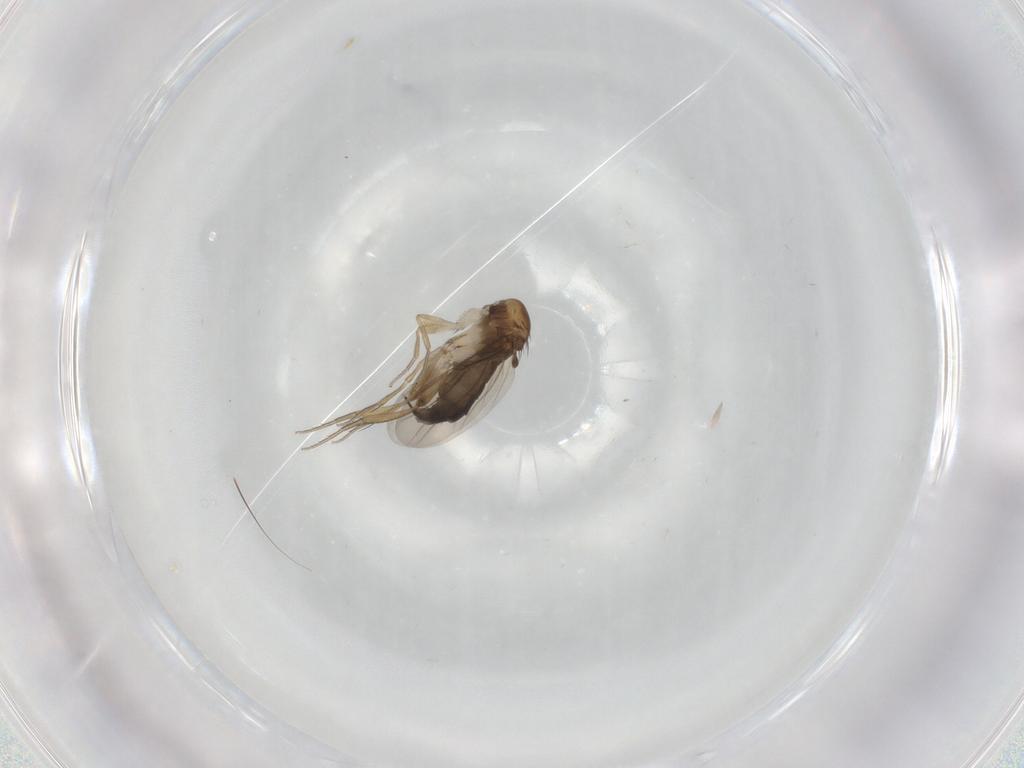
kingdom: Animalia
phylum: Arthropoda
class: Insecta
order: Diptera
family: Phoridae
